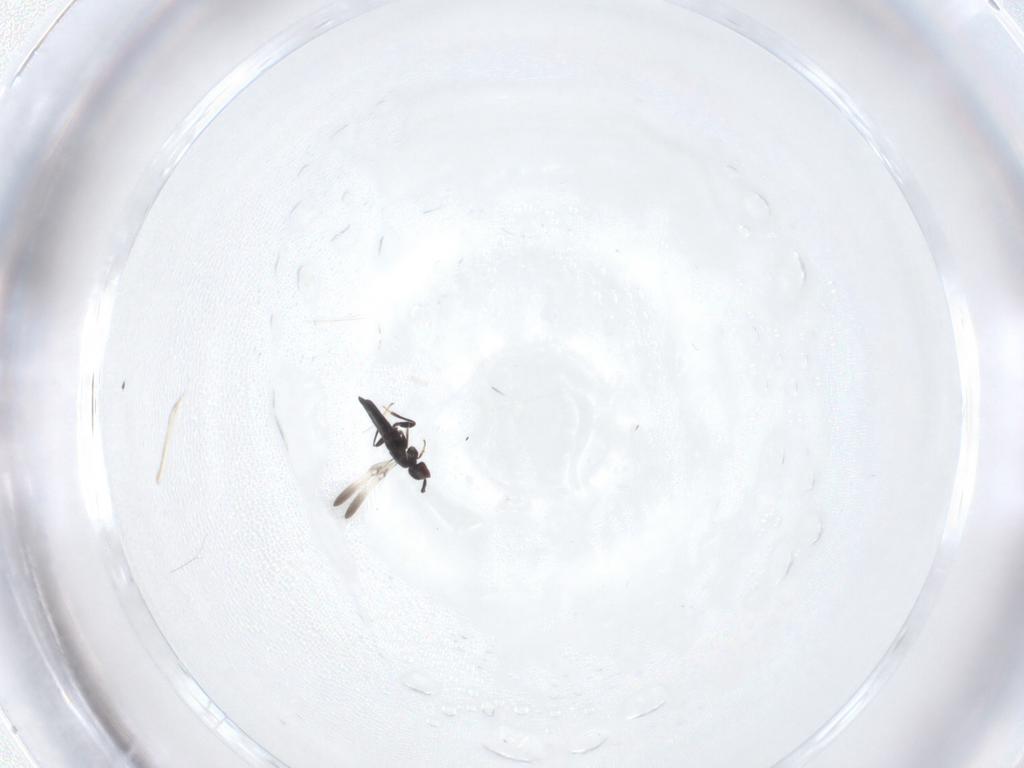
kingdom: Animalia
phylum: Arthropoda
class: Insecta
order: Hymenoptera
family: Mymaridae
